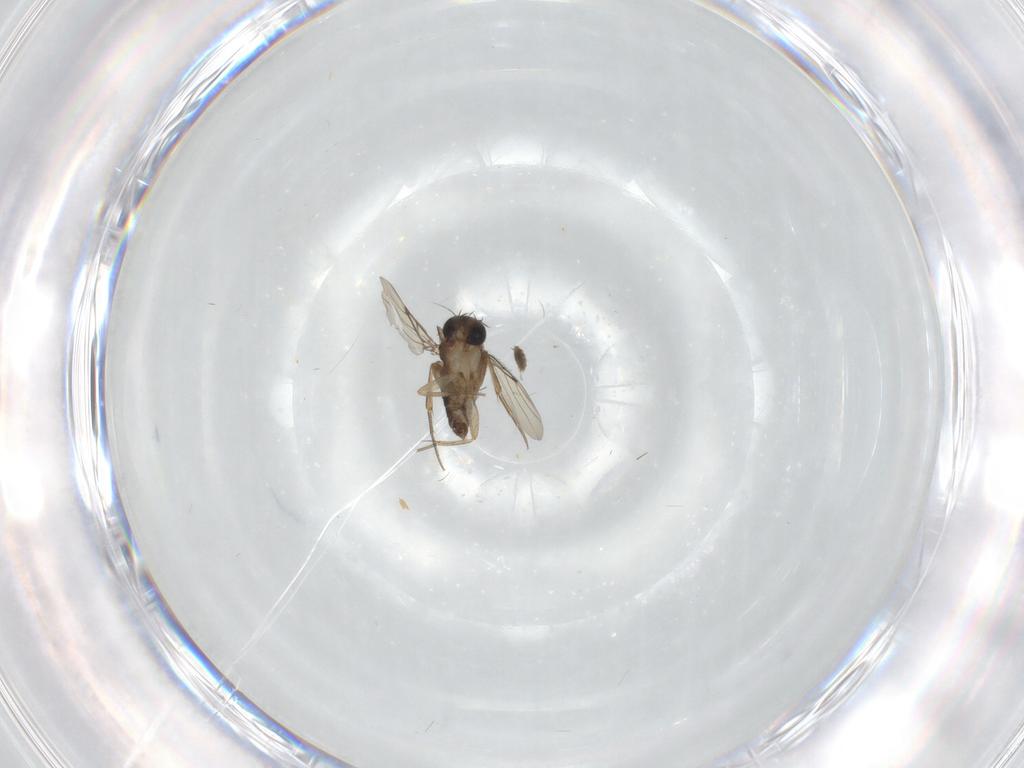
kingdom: Animalia
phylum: Arthropoda
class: Insecta
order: Diptera
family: Phoridae
